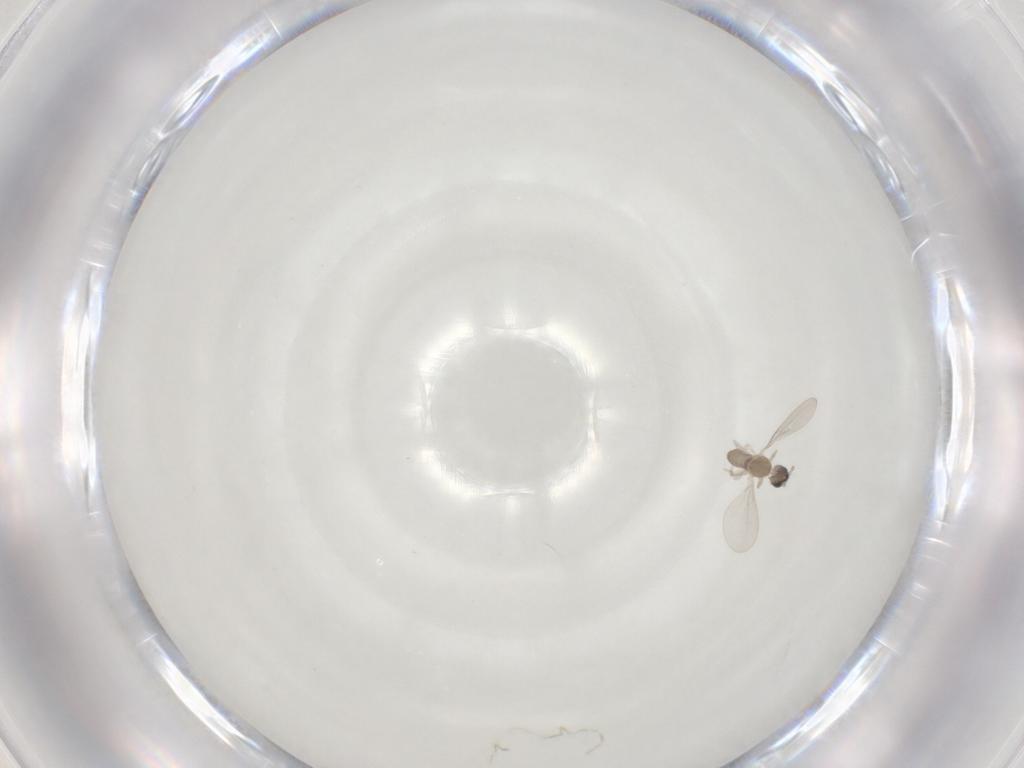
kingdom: Animalia
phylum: Arthropoda
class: Insecta
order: Diptera
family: Cecidomyiidae
